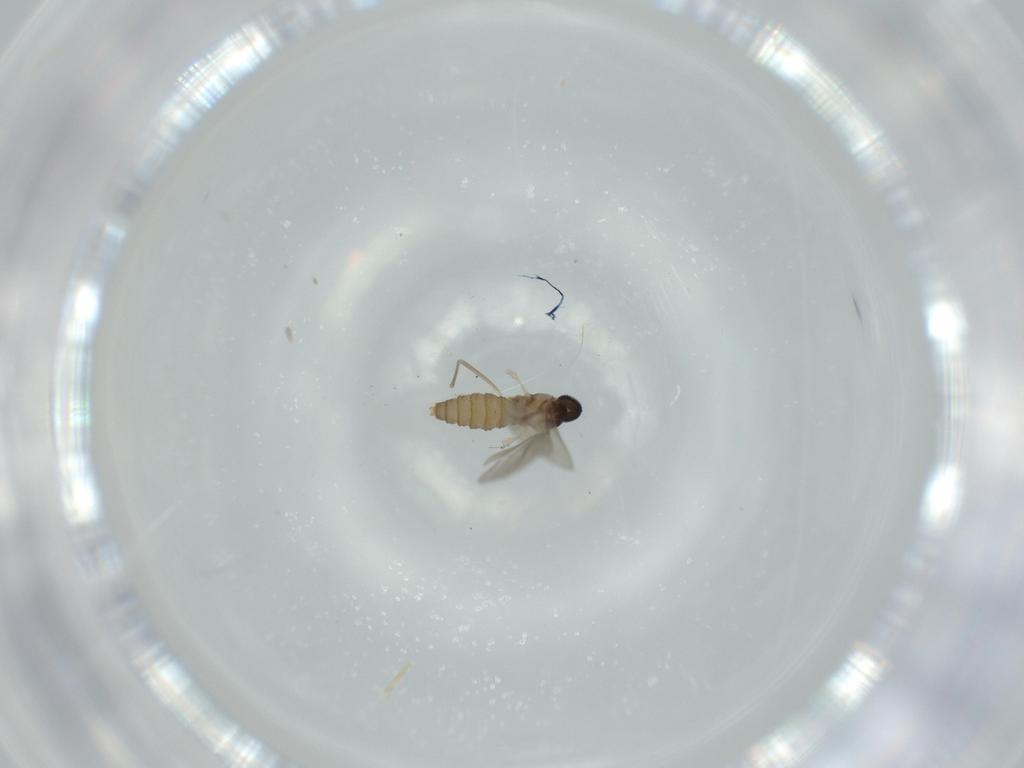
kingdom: Animalia
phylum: Arthropoda
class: Insecta
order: Diptera
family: Cecidomyiidae
